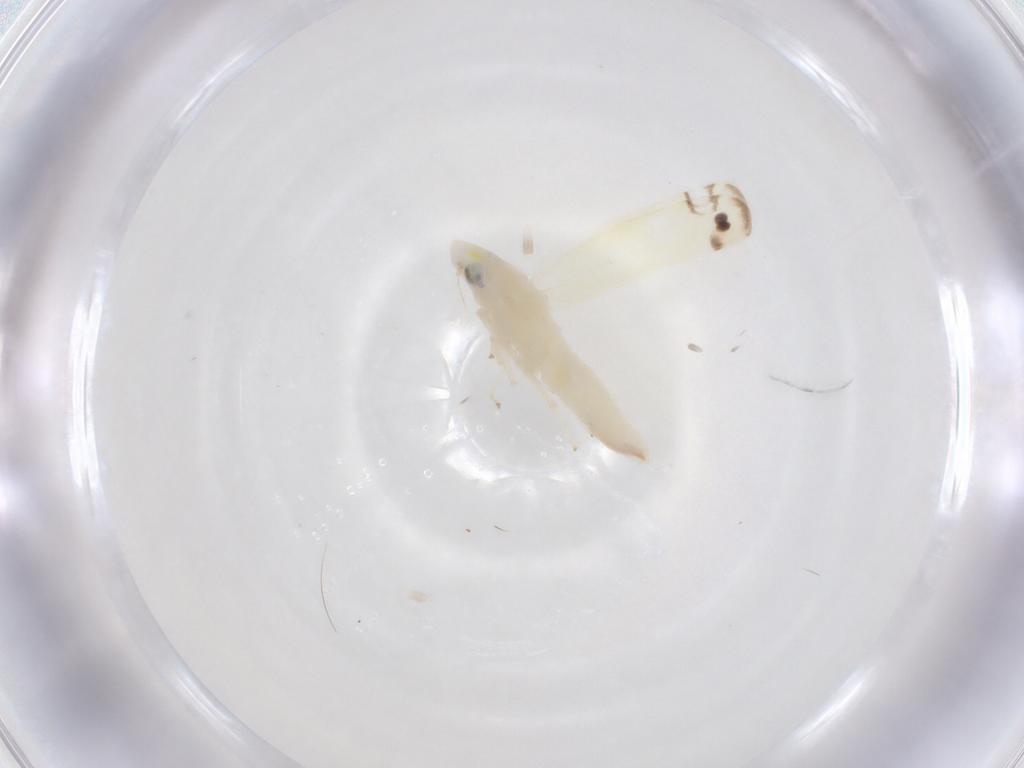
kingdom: Animalia
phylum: Arthropoda
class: Insecta
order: Hemiptera
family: Cicadellidae
